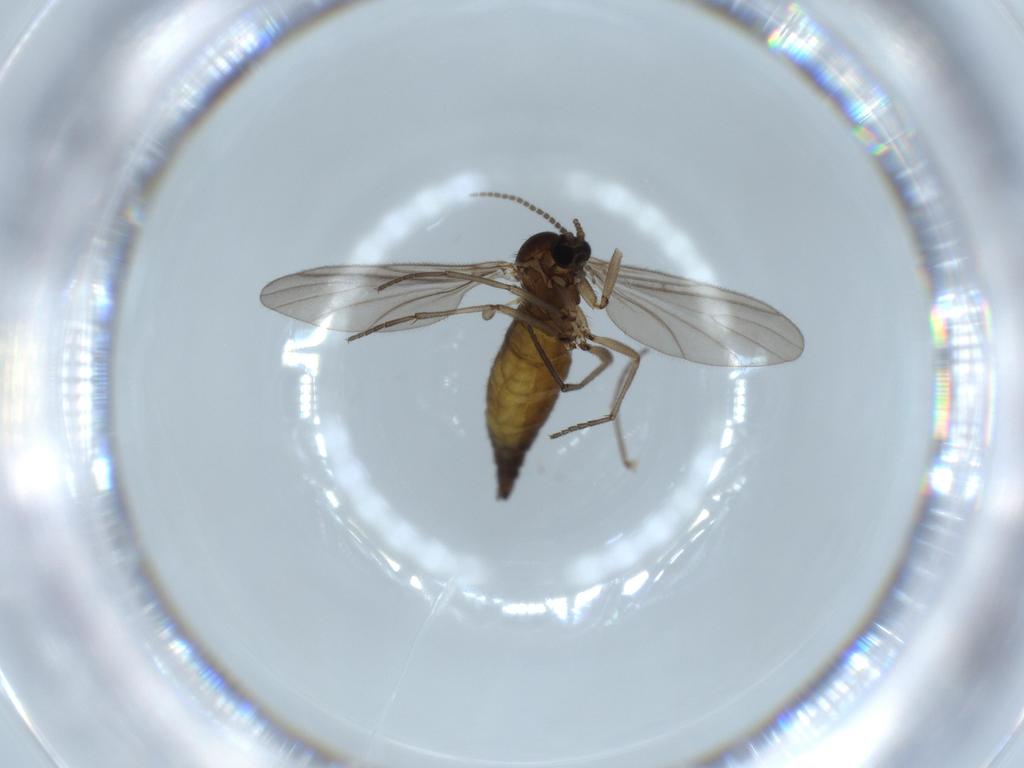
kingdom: Animalia
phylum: Arthropoda
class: Insecta
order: Diptera
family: Sciaridae
